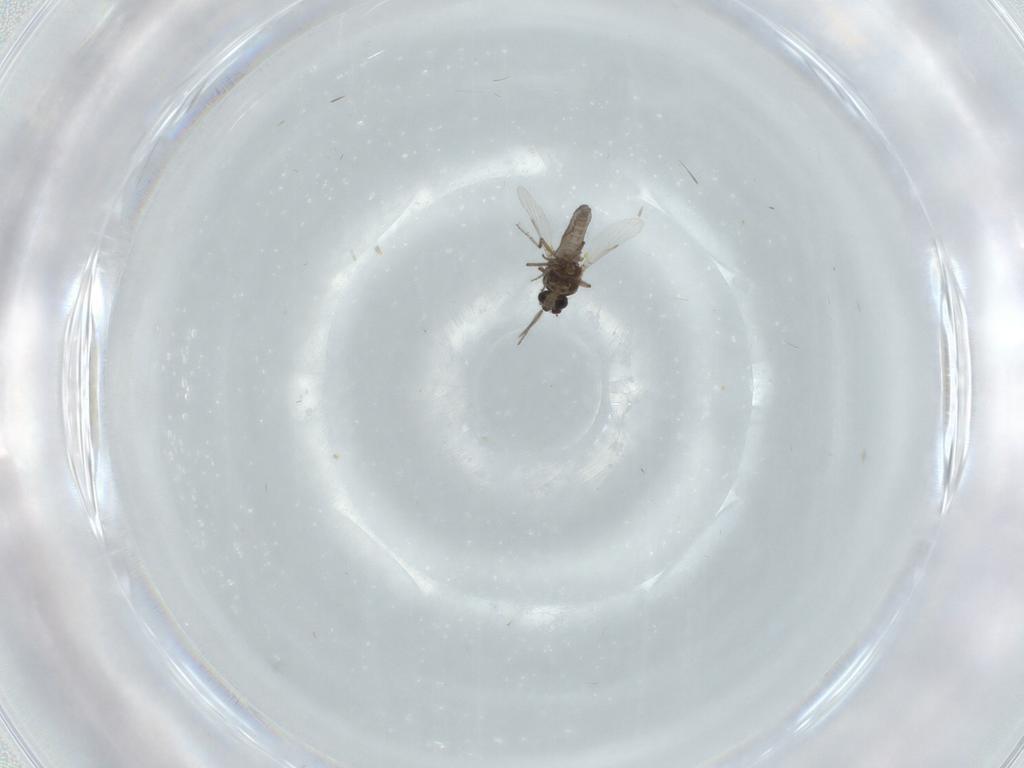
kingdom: Animalia
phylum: Arthropoda
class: Insecta
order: Diptera
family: Ceratopogonidae
